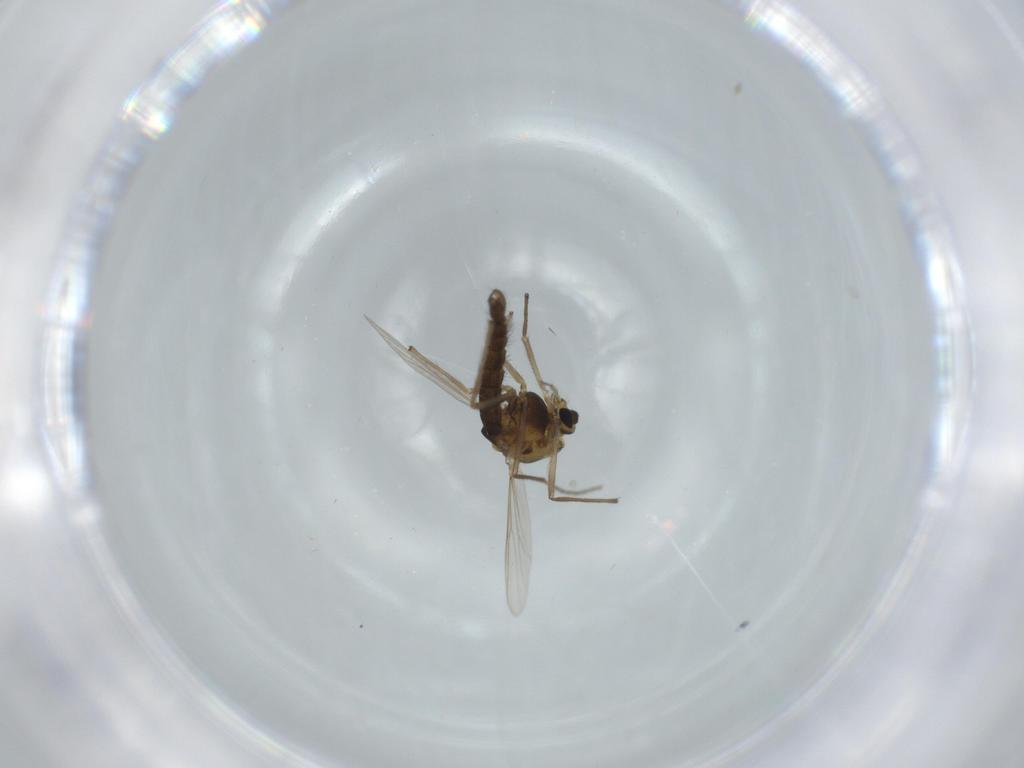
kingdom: Animalia
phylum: Arthropoda
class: Insecta
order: Diptera
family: Chironomidae
